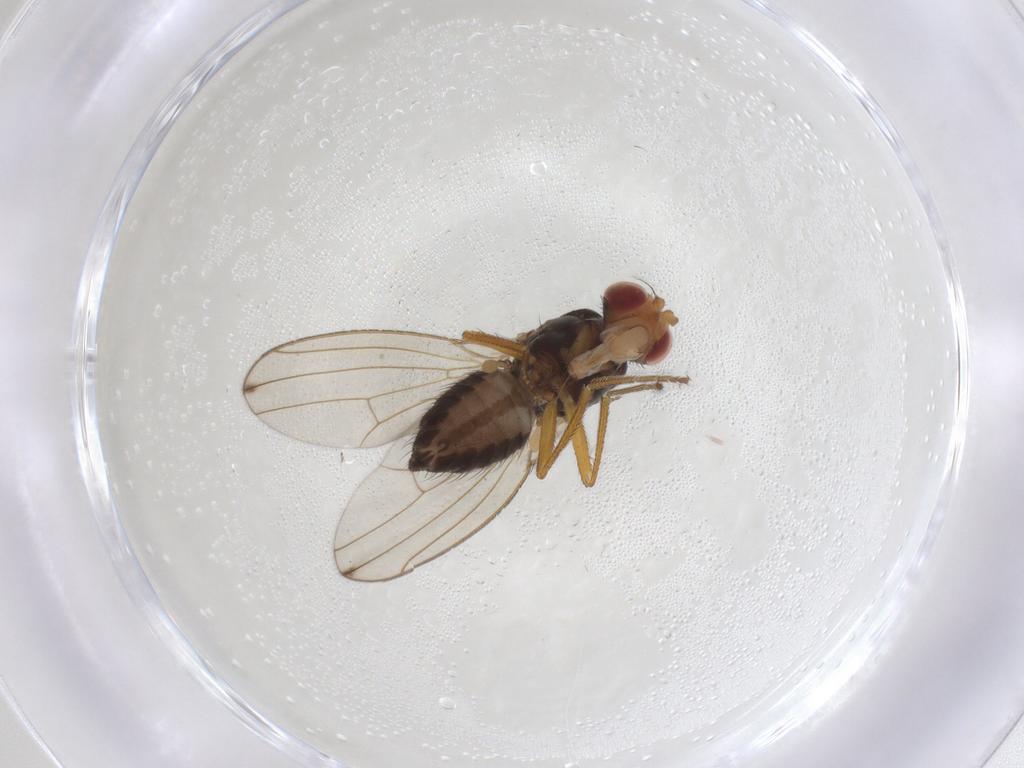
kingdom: Animalia
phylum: Arthropoda
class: Insecta
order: Diptera
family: Drosophilidae
